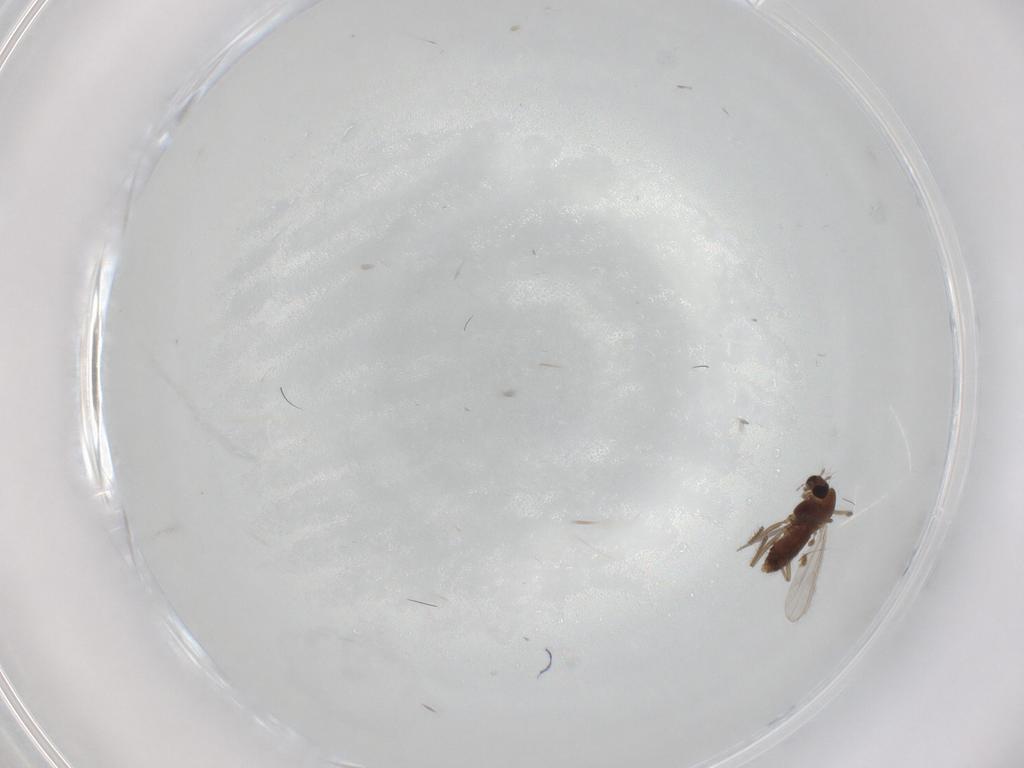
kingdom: Animalia
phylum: Arthropoda
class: Insecta
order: Diptera
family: Chironomidae
